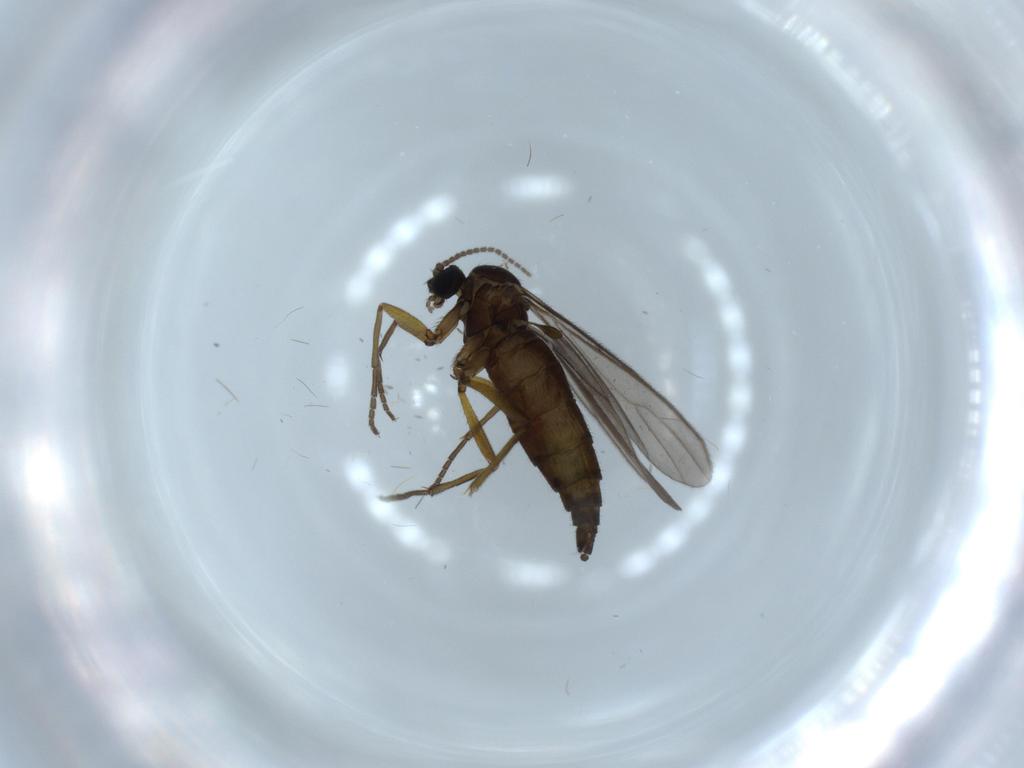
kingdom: Animalia
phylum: Arthropoda
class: Insecta
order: Diptera
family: Sciaridae
